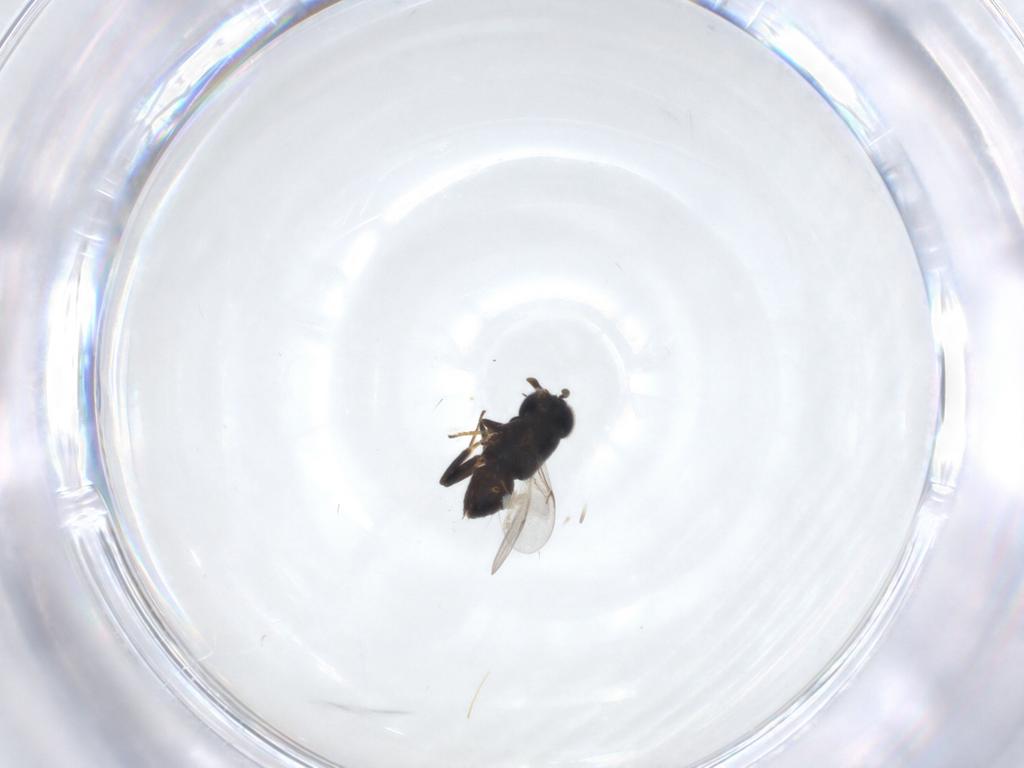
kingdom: Animalia
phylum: Arthropoda
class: Insecta
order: Hymenoptera
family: Encyrtidae
